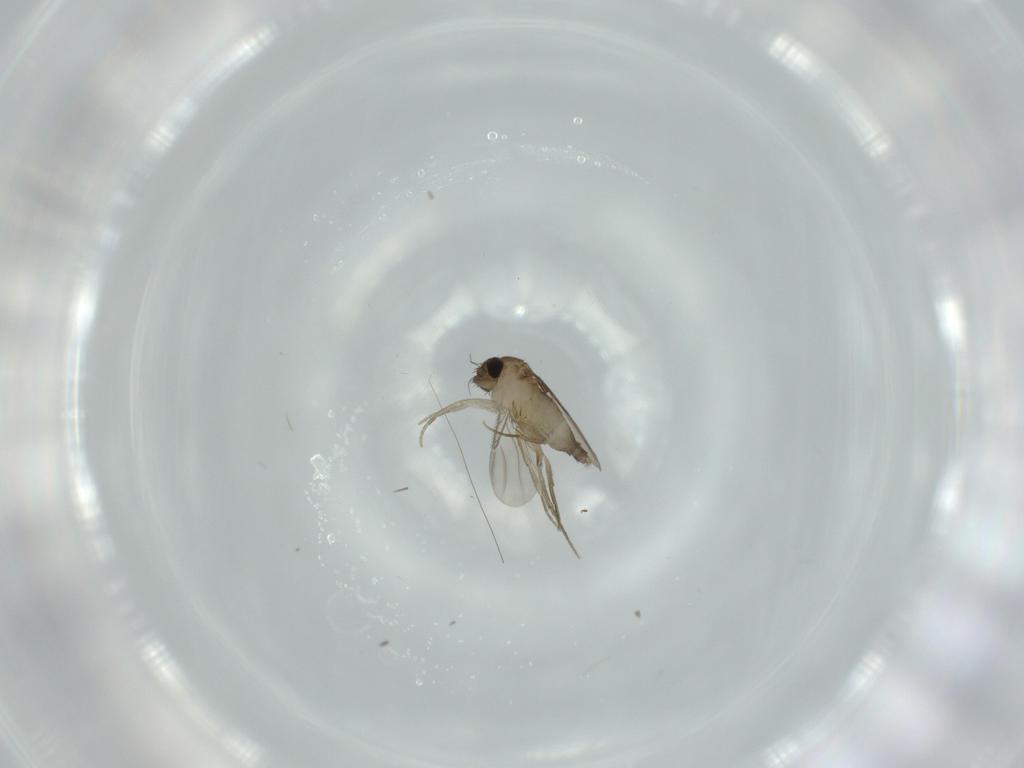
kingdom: Animalia
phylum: Arthropoda
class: Insecta
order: Diptera
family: Phoridae
